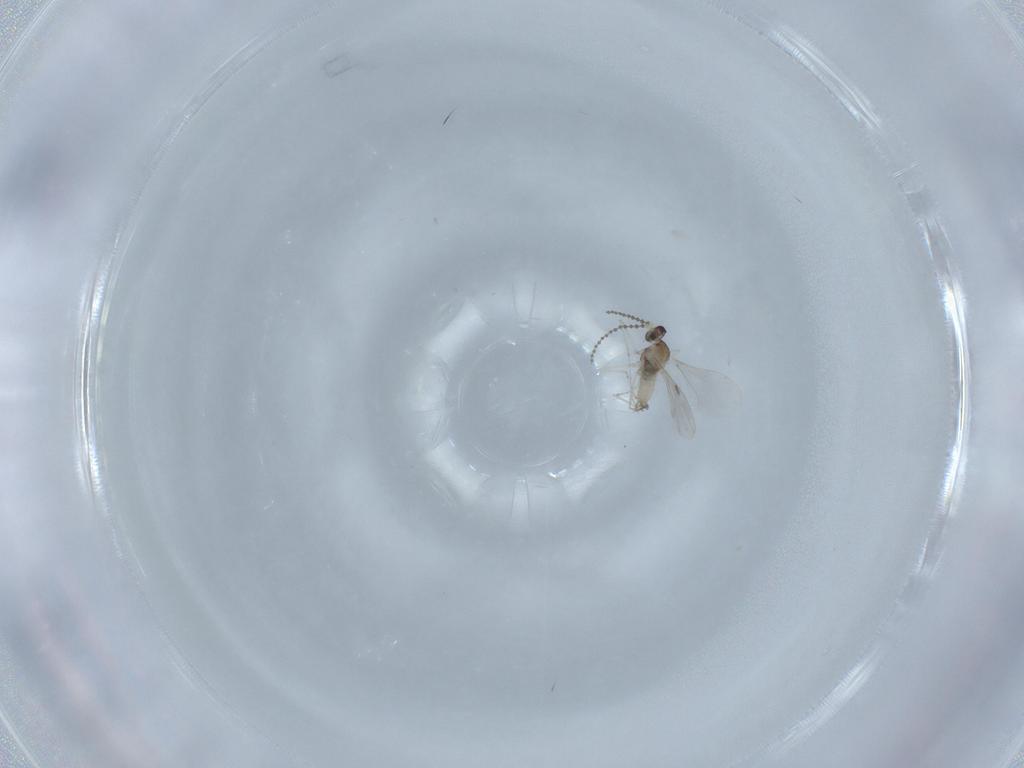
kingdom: Animalia
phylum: Arthropoda
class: Insecta
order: Diptera
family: Cecidomyiidae
